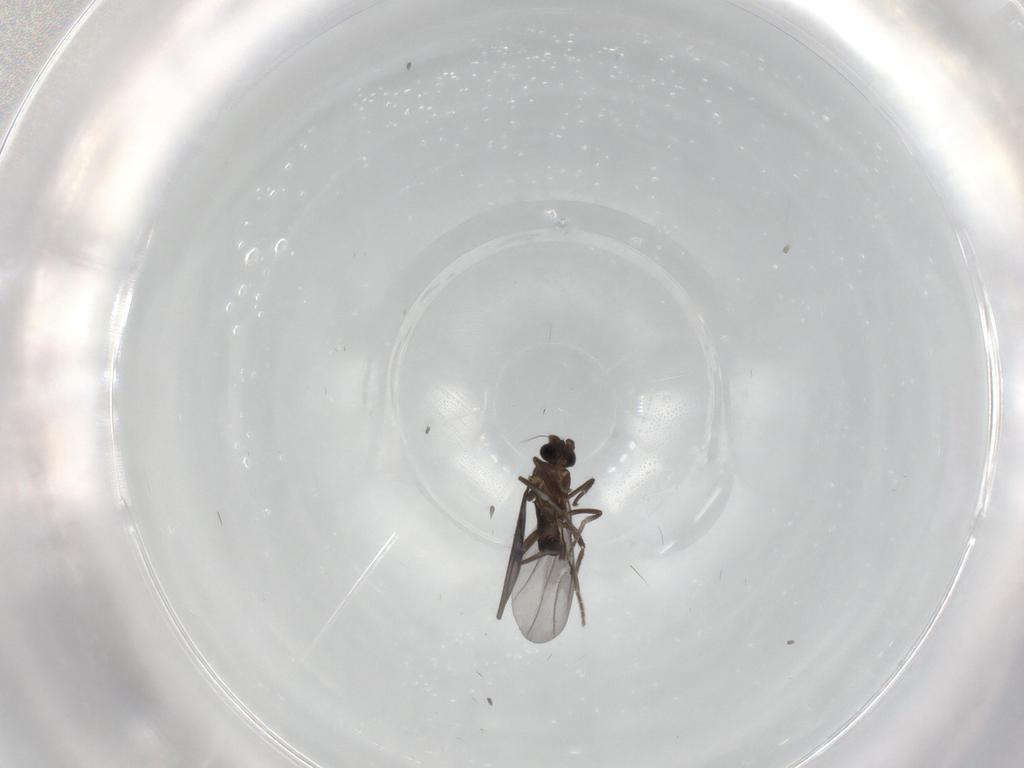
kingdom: Animalia
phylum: Arthropoda
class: Insecta
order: Diptera
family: Phoridae
